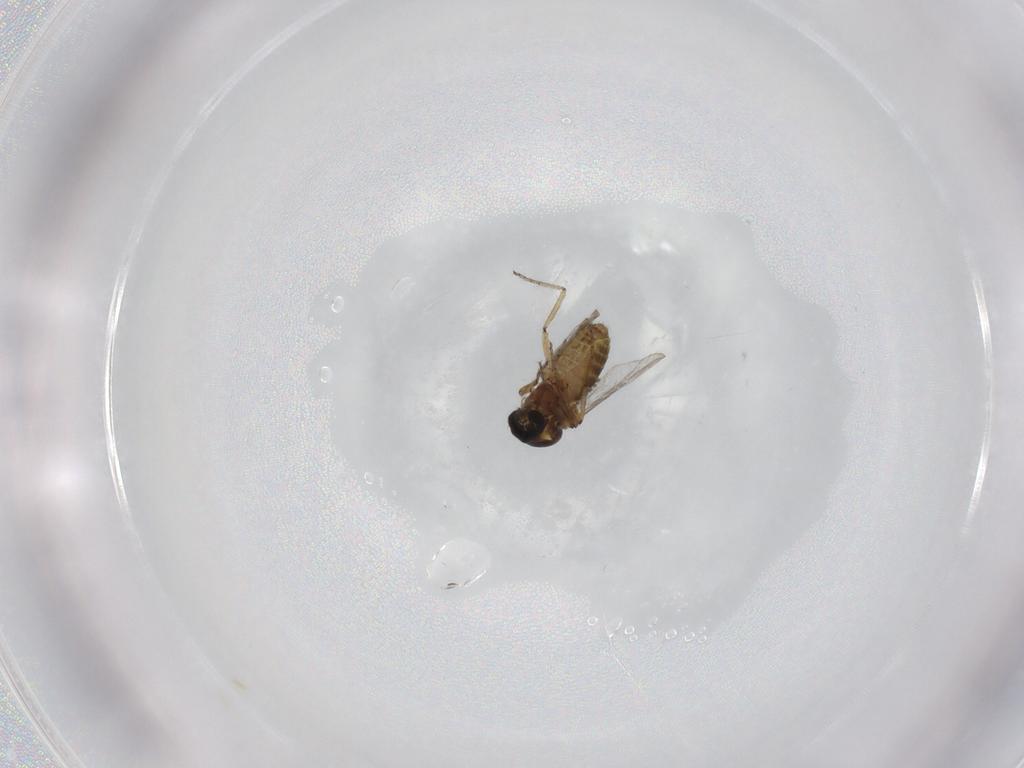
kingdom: Animalia
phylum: Arthropoda
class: Insecta
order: Diptera
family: Ceratopogonidae
